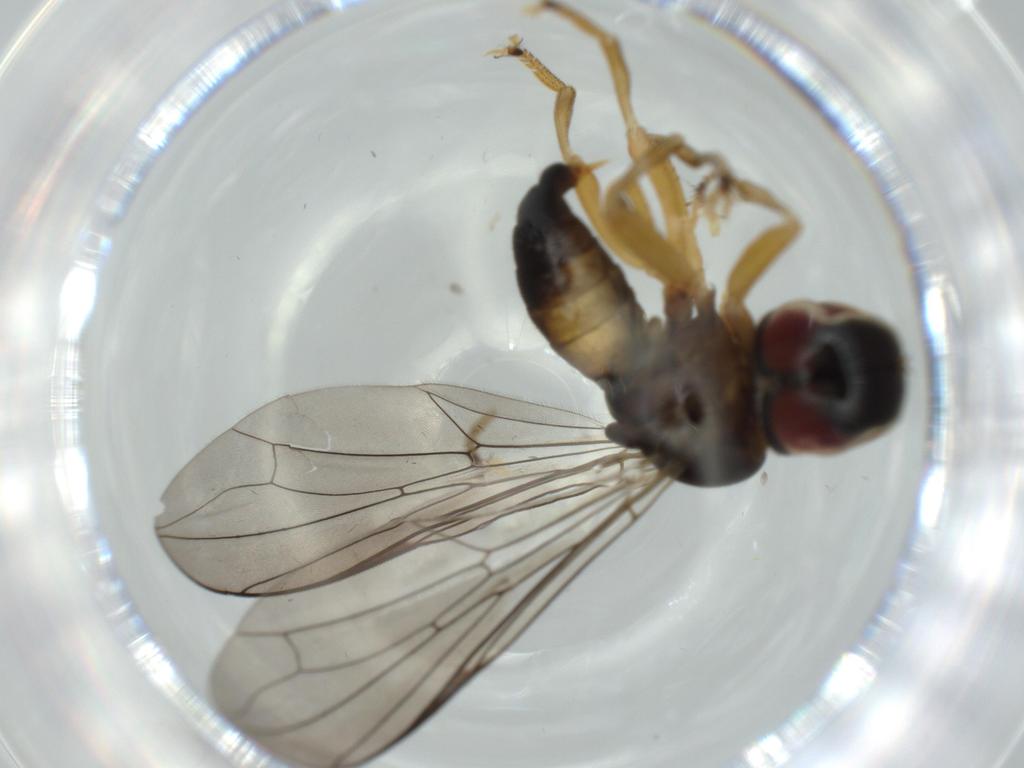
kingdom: Animalia
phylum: Arthropoda
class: Insecta
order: Diptera
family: Pipunculidae
